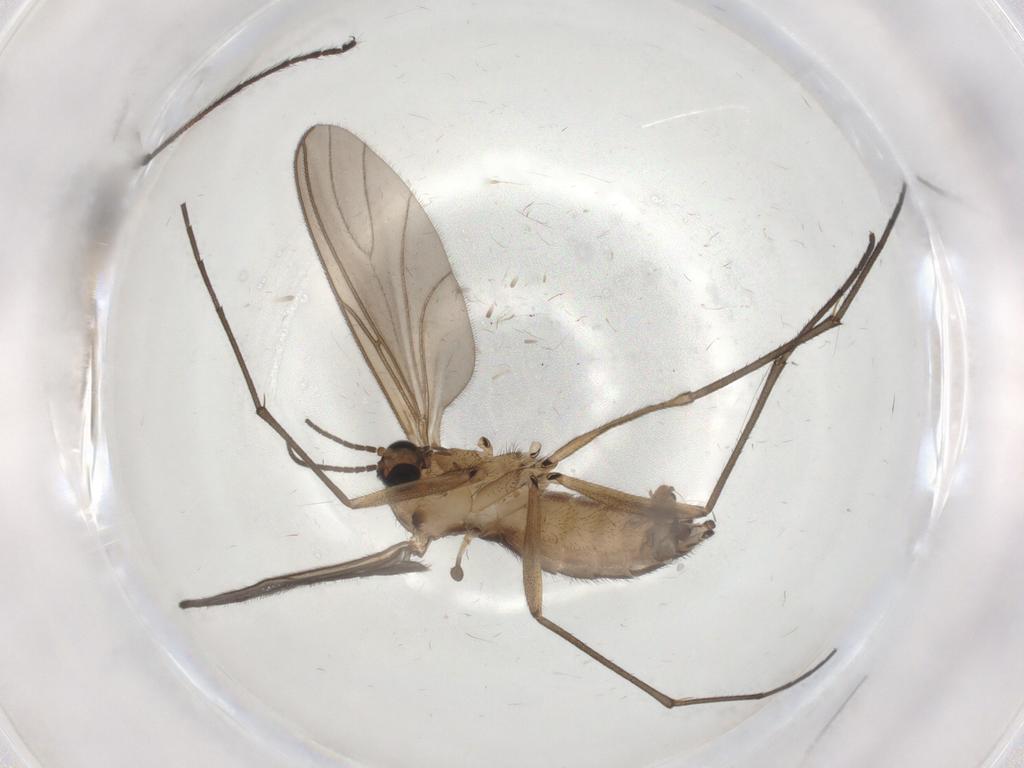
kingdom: Animalia
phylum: Arthropoda
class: Insecta
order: Diptera
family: Limoniidae
